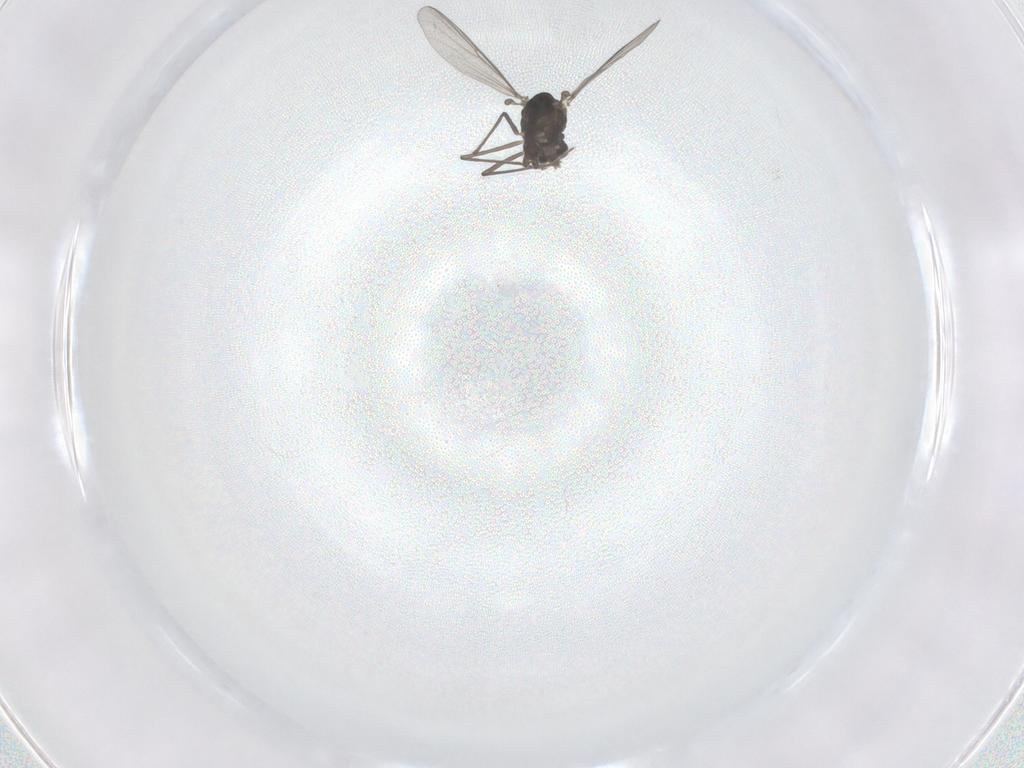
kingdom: Animalia
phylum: Arthropoda
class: Insecta
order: Diptera
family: Chironomidae
